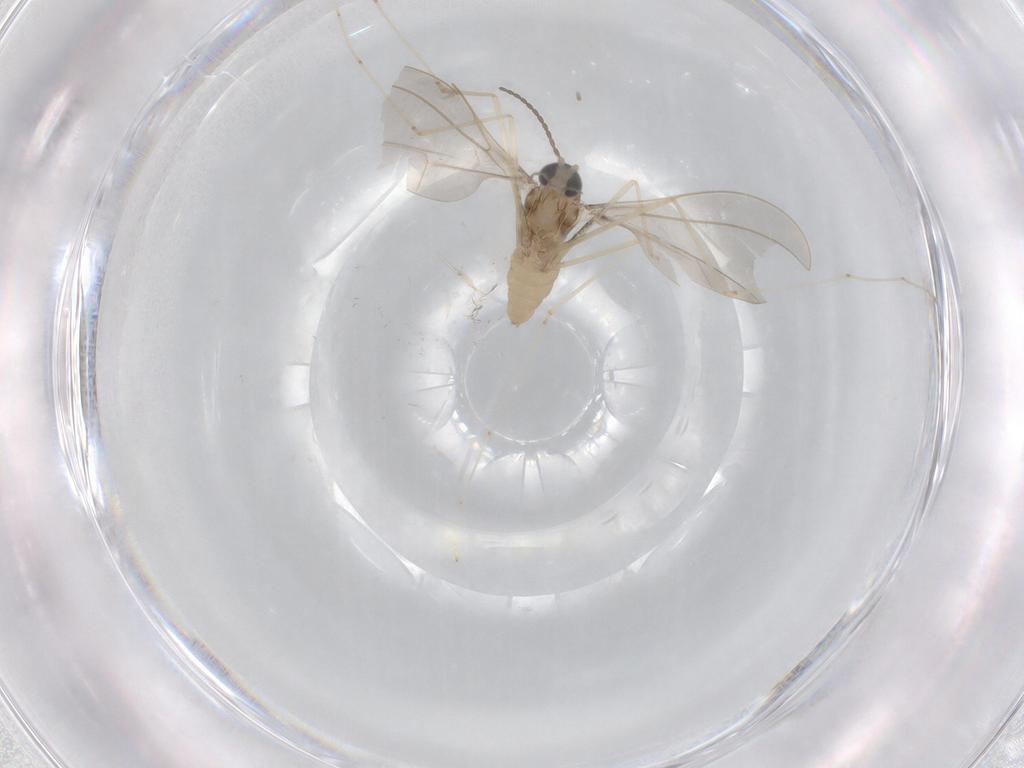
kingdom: Animalia
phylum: Arthropoda
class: Insecta
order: Diptera
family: Cecidomyiidae
